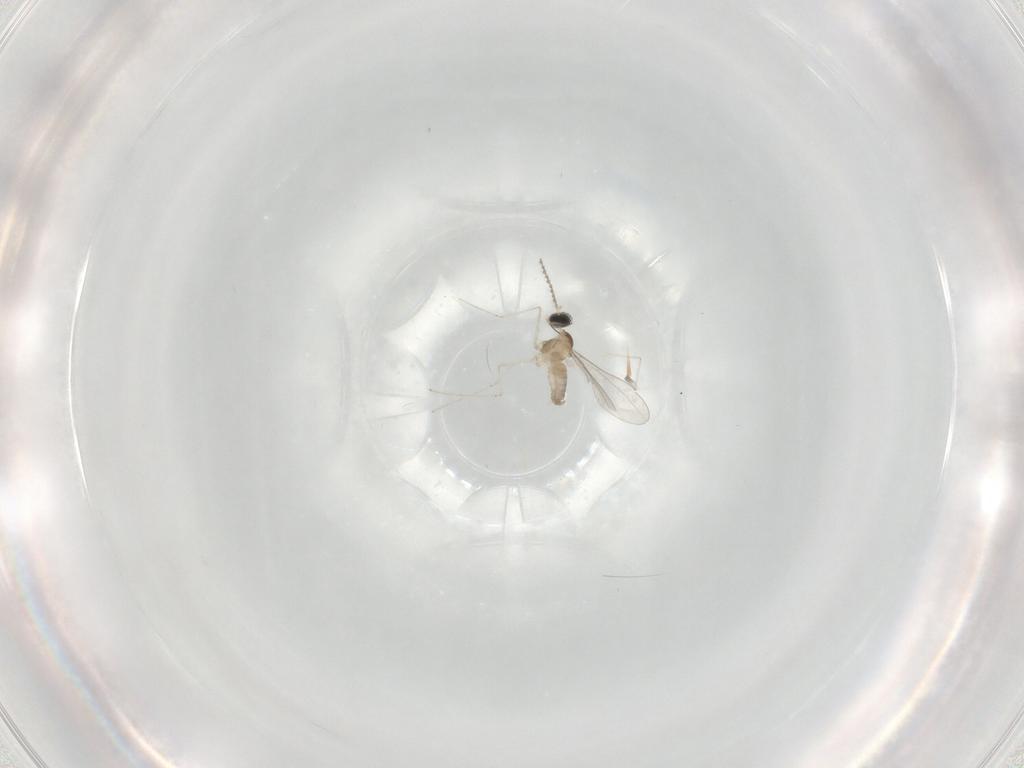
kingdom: Animalia
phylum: Arthropoda
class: Insecta
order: Diptera
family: Cecidomyiidae
